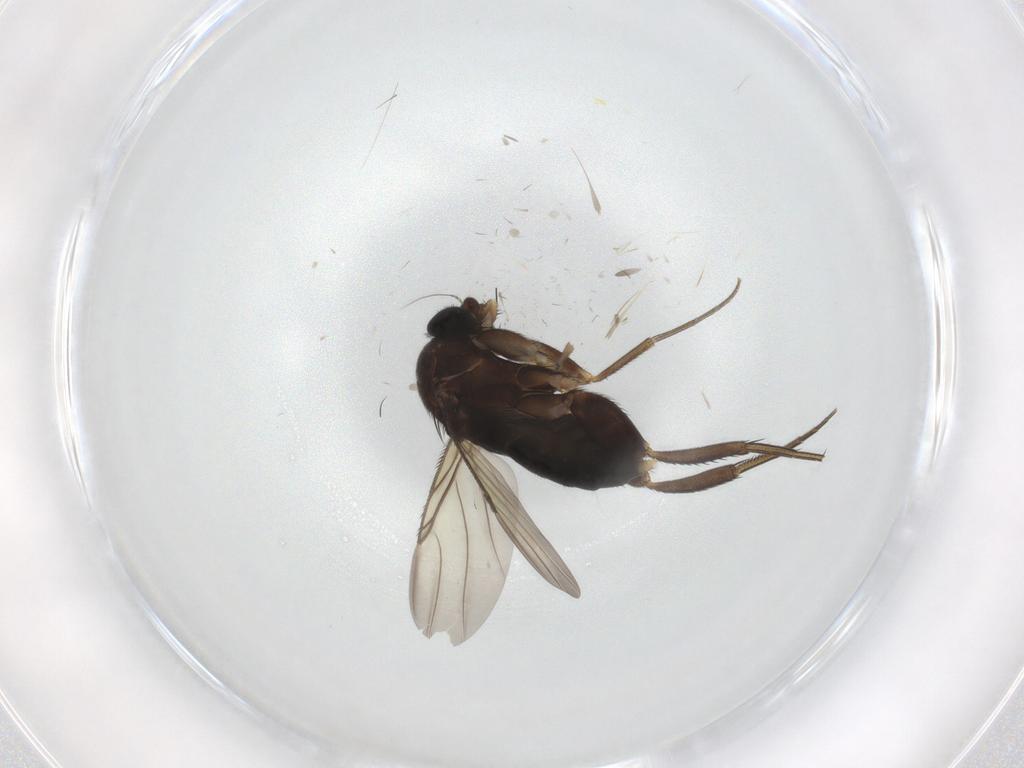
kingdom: Animalia
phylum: Arthropoda
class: Insecta
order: Diptera
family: Phoridae
